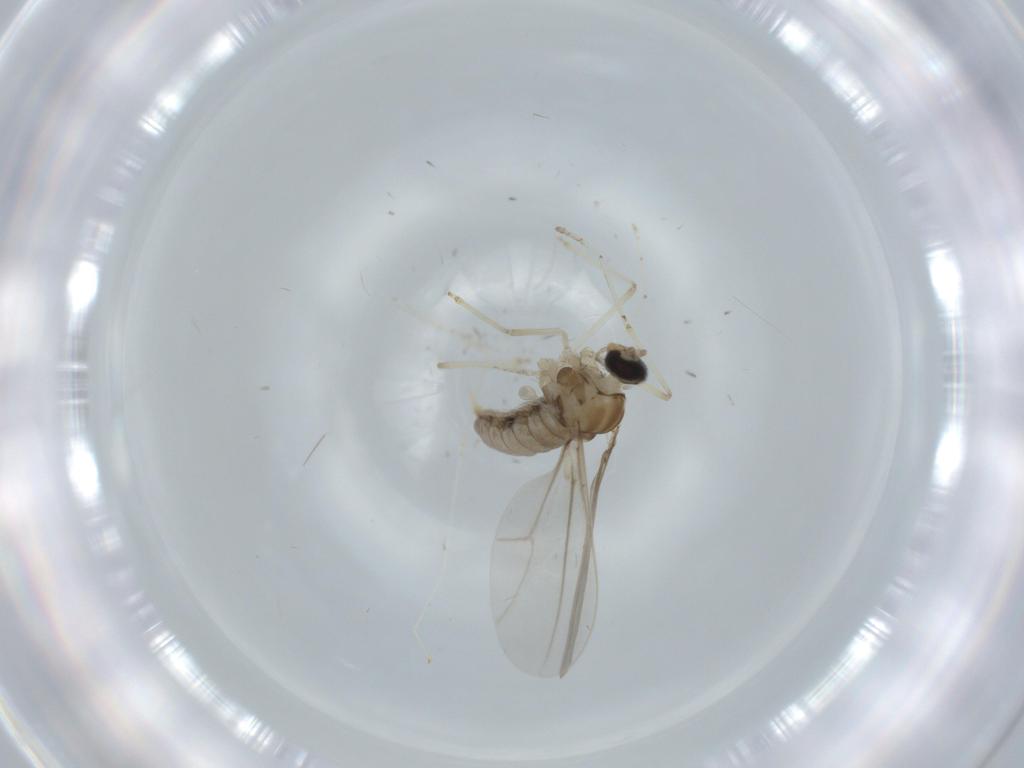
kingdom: Animalia
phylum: Arthropoda
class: Insecta
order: Diptera
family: Cecidomyiidae
